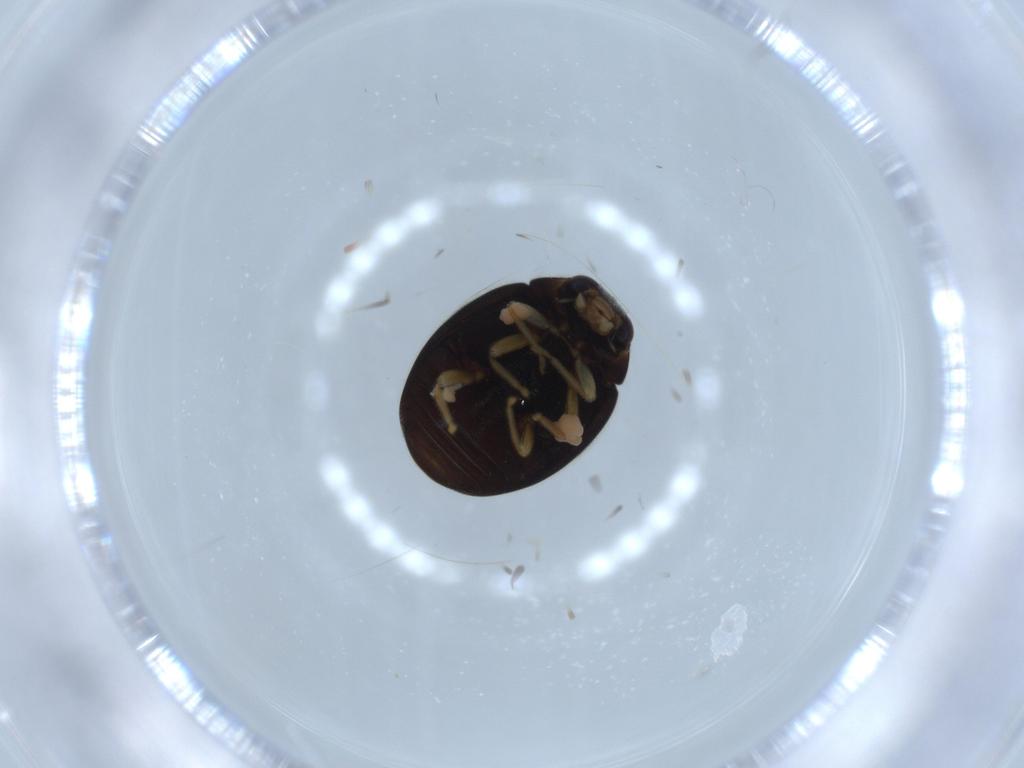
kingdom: Animalia
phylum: Arthropoda
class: Insecta
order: Coleoptera
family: Coccinellidae
